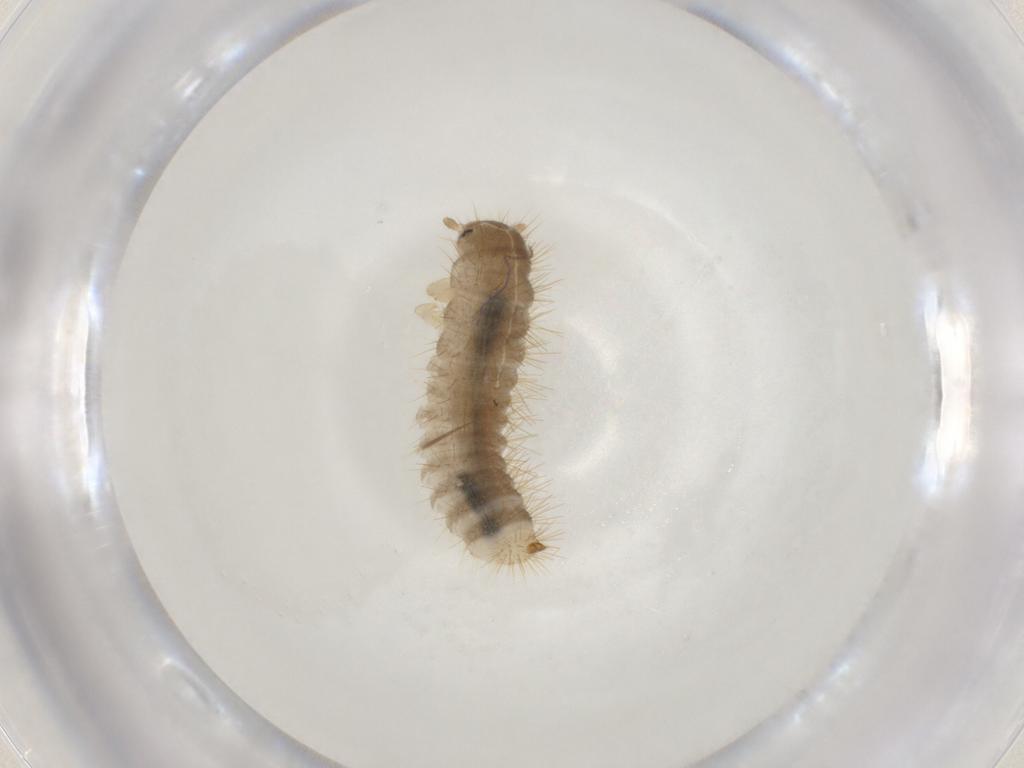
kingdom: Animalia
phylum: Arthropoda
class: Insecta
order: Coleoptera
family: Tenebrionidae
